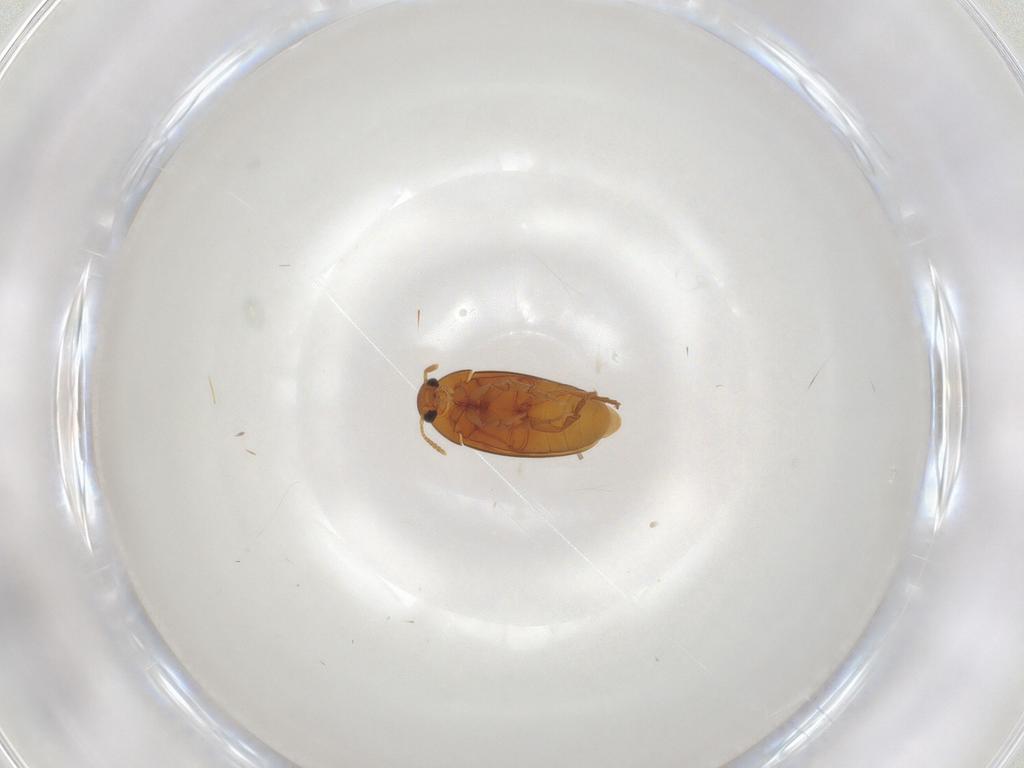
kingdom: Animalia
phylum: Arthropoda
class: Insecta
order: Coleoptera
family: Scraptiidae
